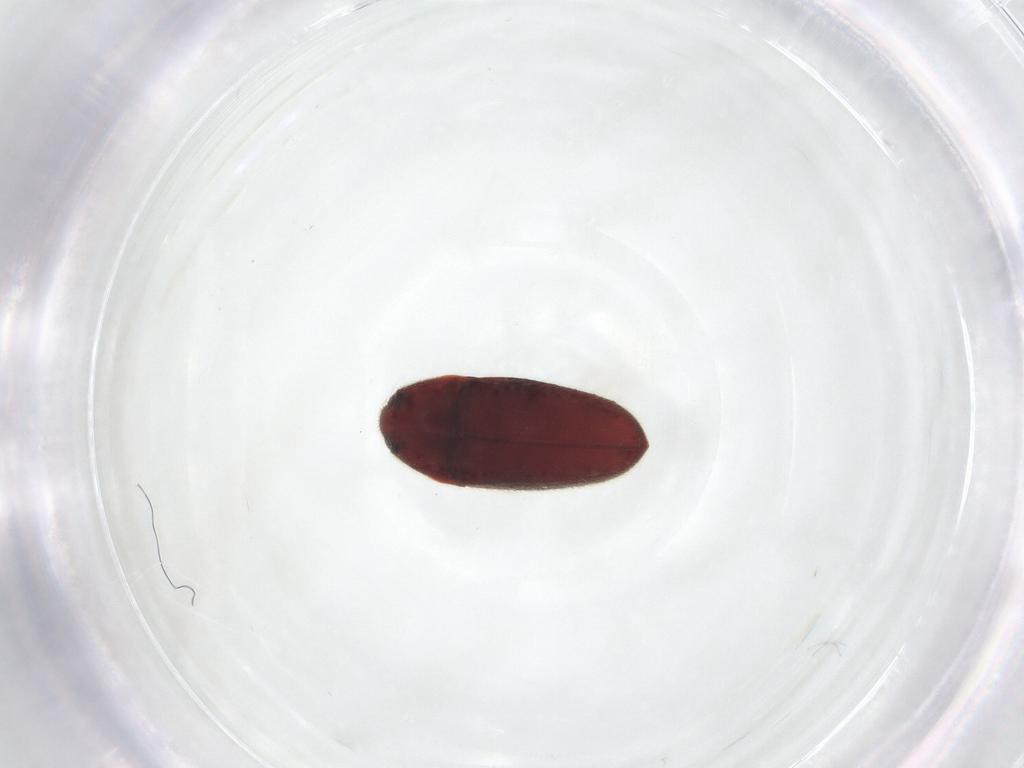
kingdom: Animalia
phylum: Arthropoda
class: Insecta
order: Coleoptera
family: Throscidae
